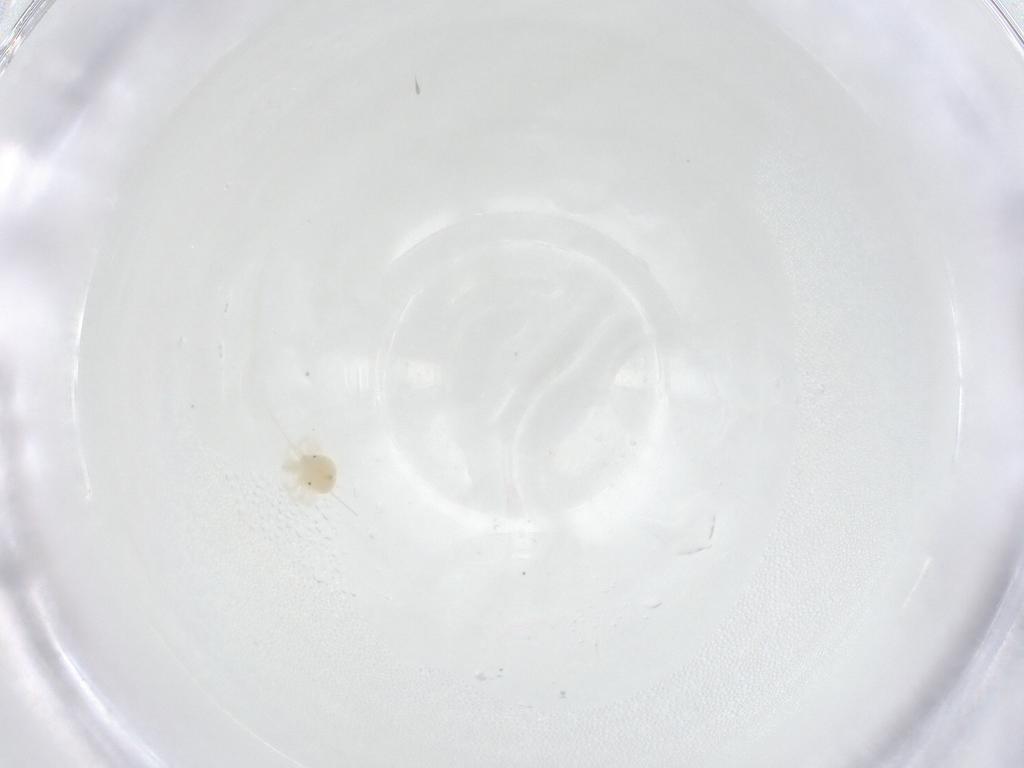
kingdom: Animalia
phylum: Arthropoda
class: Arachnida
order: Trombidiformes
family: Anystidae
